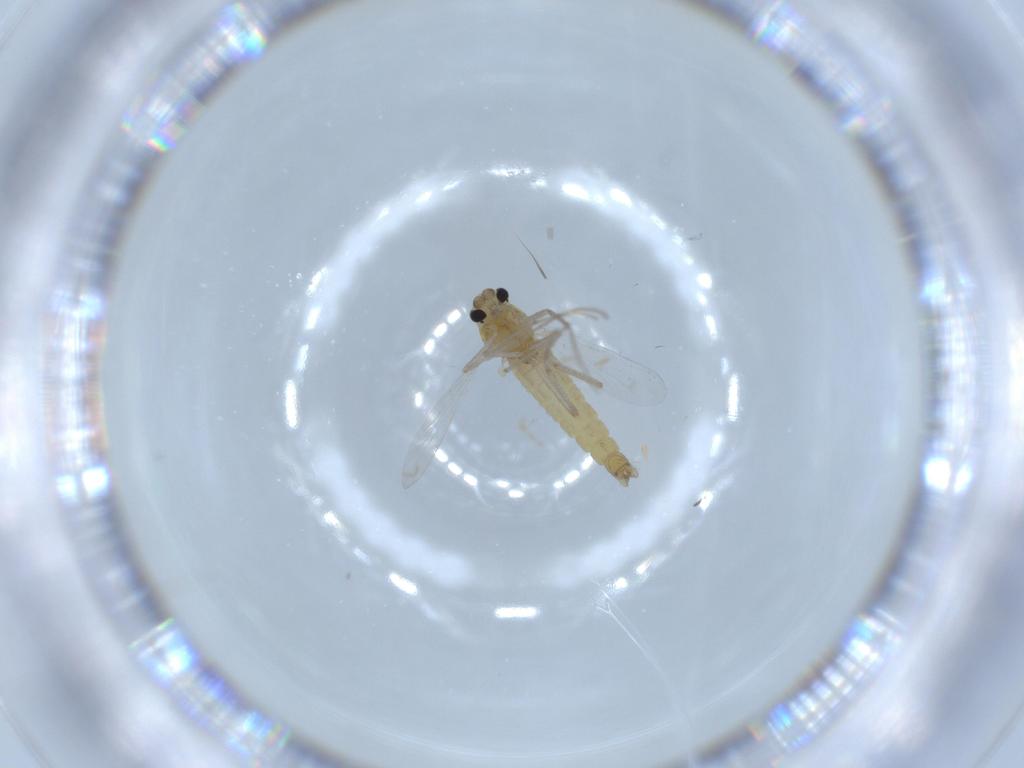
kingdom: Animalia
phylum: Arthropoda
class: Insecta
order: Diptera
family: Chironomidae
